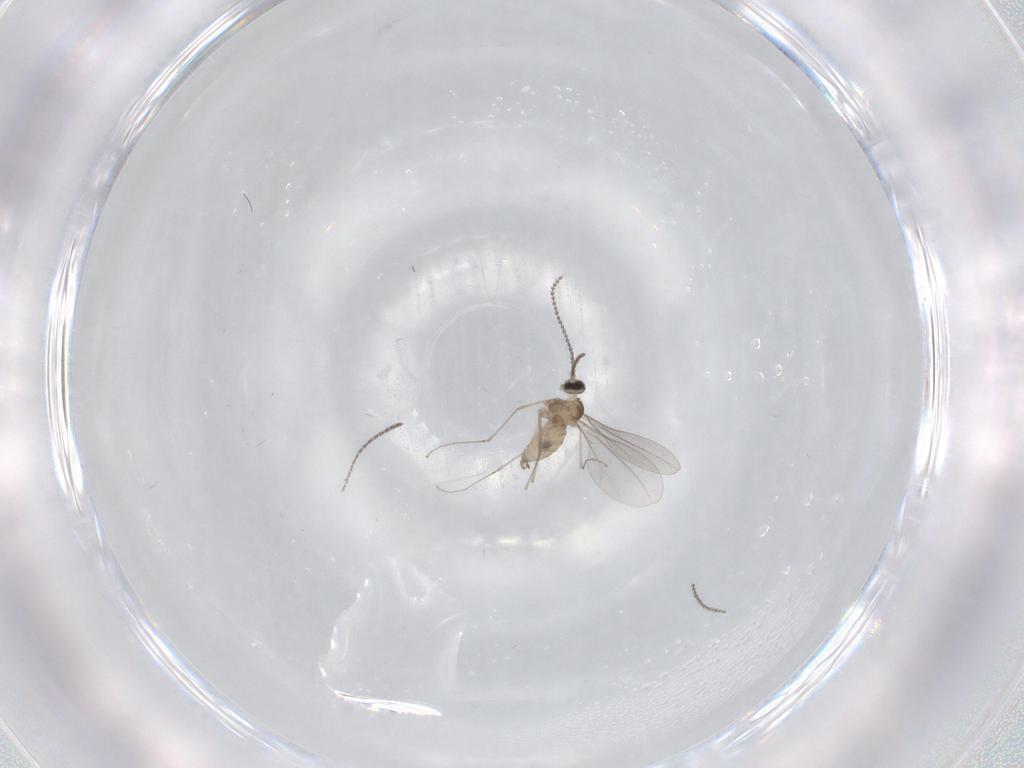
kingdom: Animalia
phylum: Arthropoda
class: Insecta
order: Diptera
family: Sciaridae
